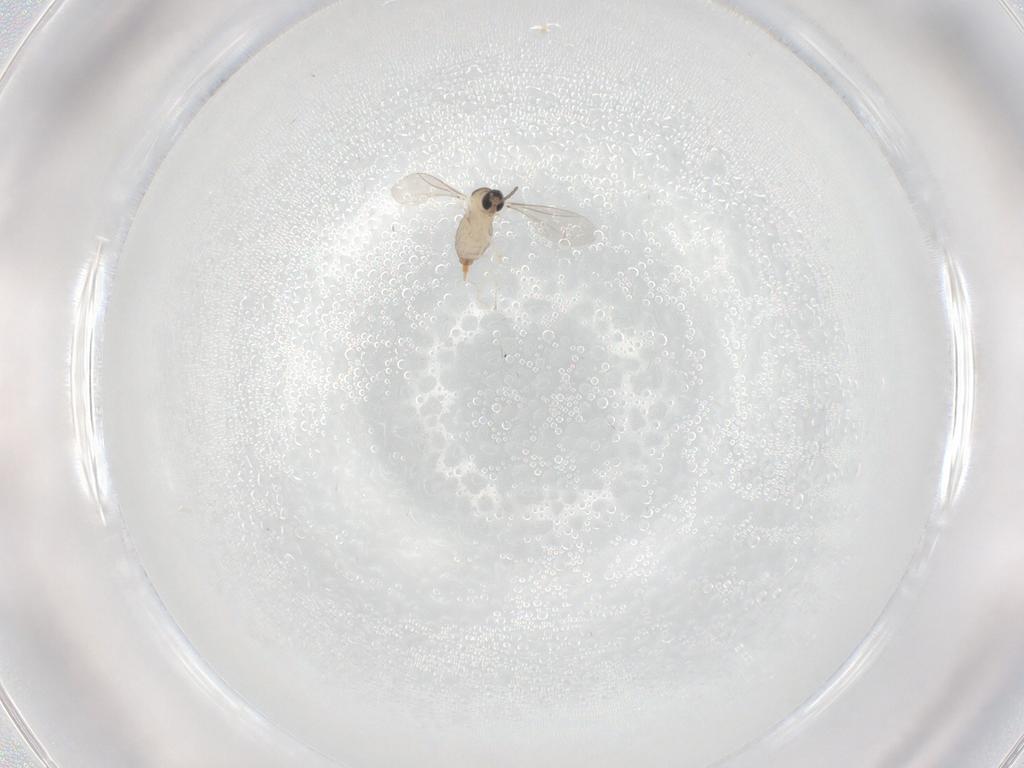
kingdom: Animalia
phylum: Arthropoda
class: Insecta
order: Diptera
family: Cecidomyiidae
